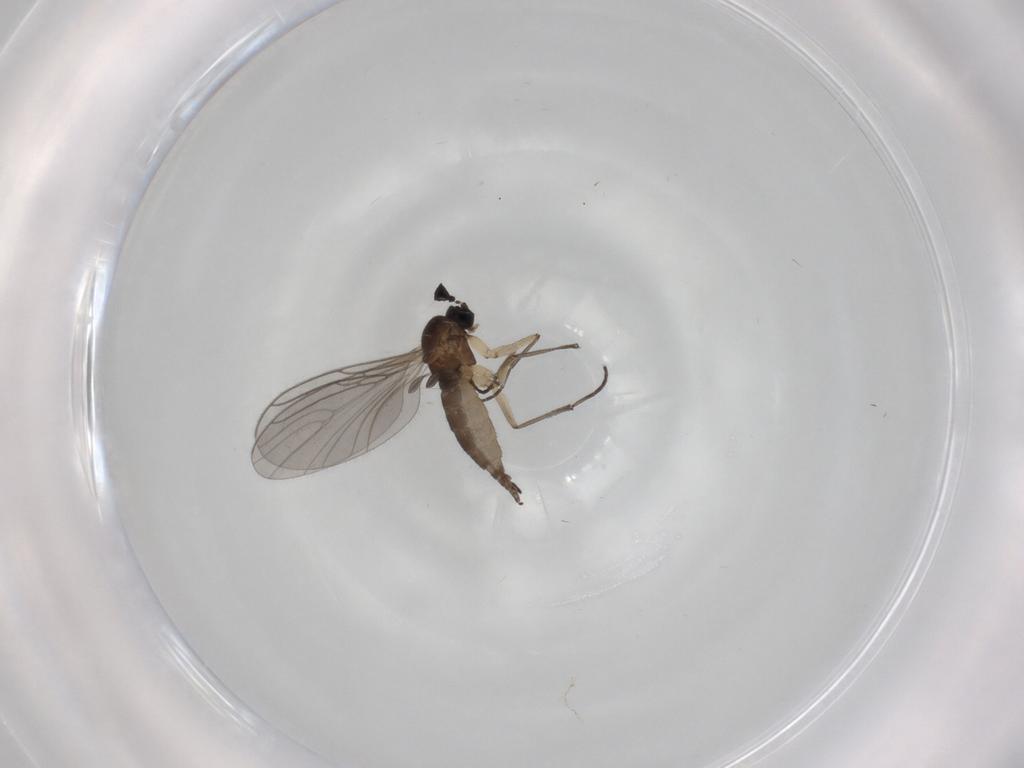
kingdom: Animalia
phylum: Arthropoda
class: Insecta
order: Diptera
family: Sciaridae
